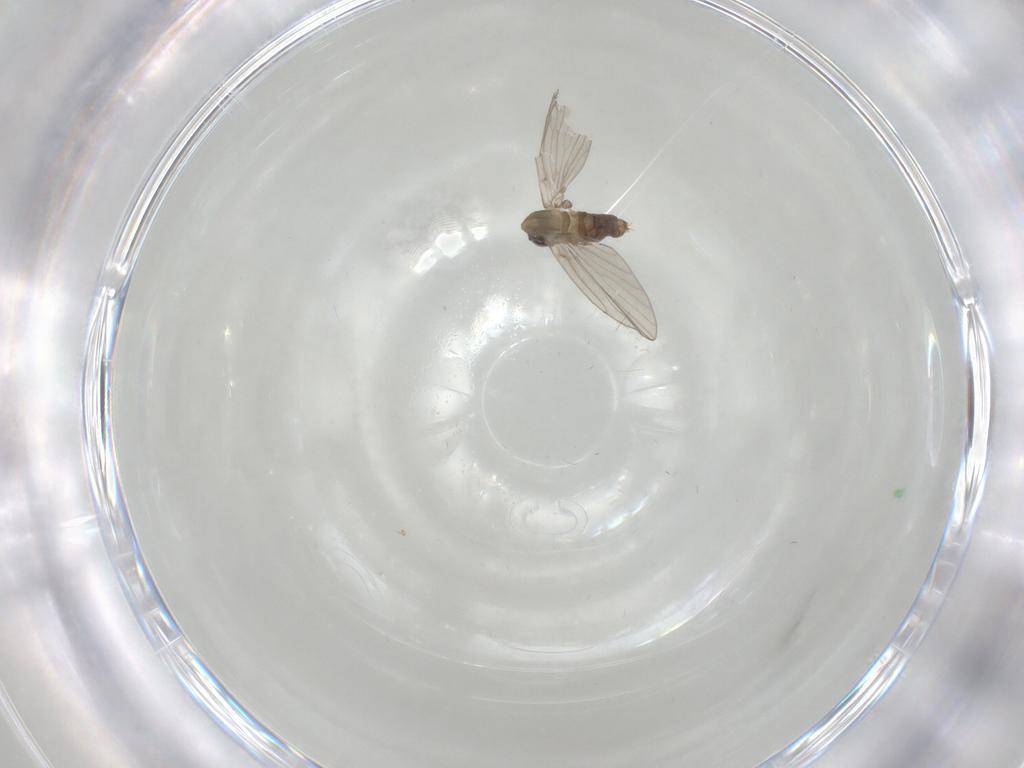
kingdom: Animalia
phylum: Arthropoda
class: Insecta
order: Diptera
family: Psychodidae
